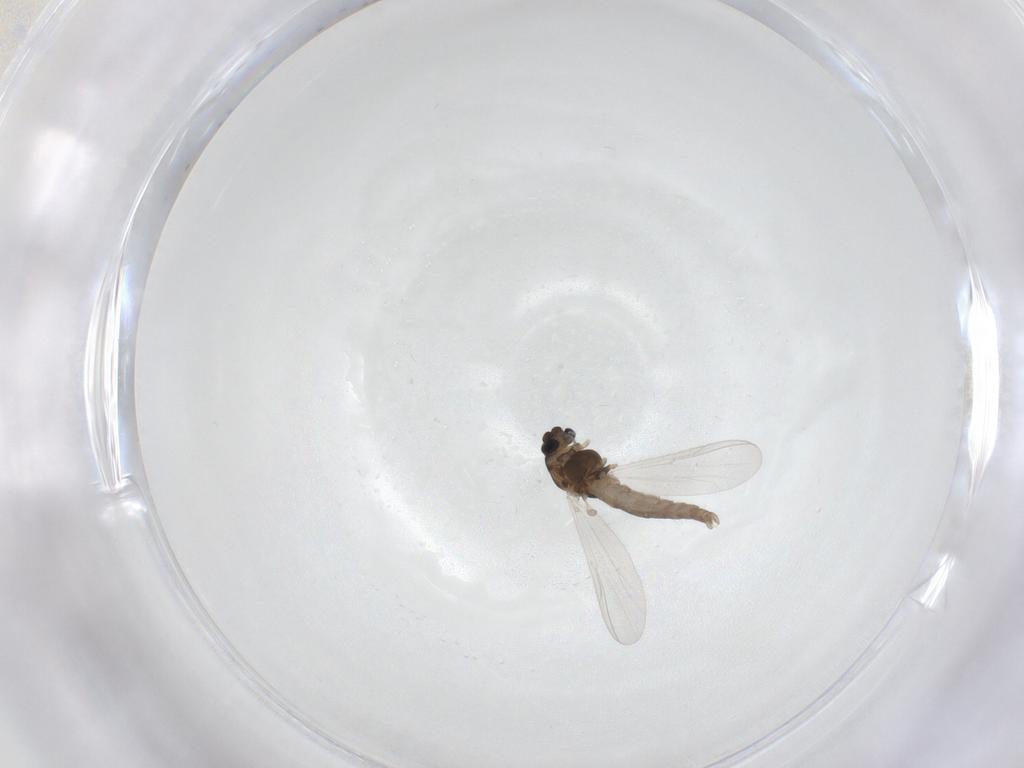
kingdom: Animalia
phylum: Arthropoda
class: Insecta
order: Diptera
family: Chironomidae
